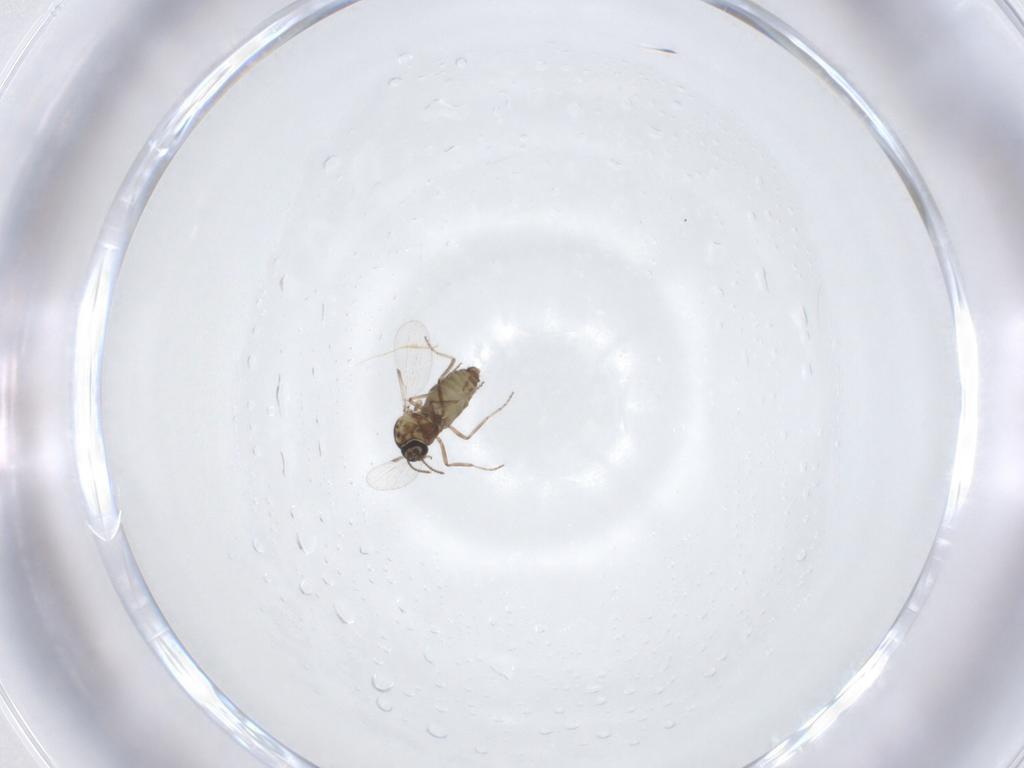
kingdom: Animalia
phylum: Arthropoda
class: Insecta
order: Diptera
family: Ceratopogonidae
